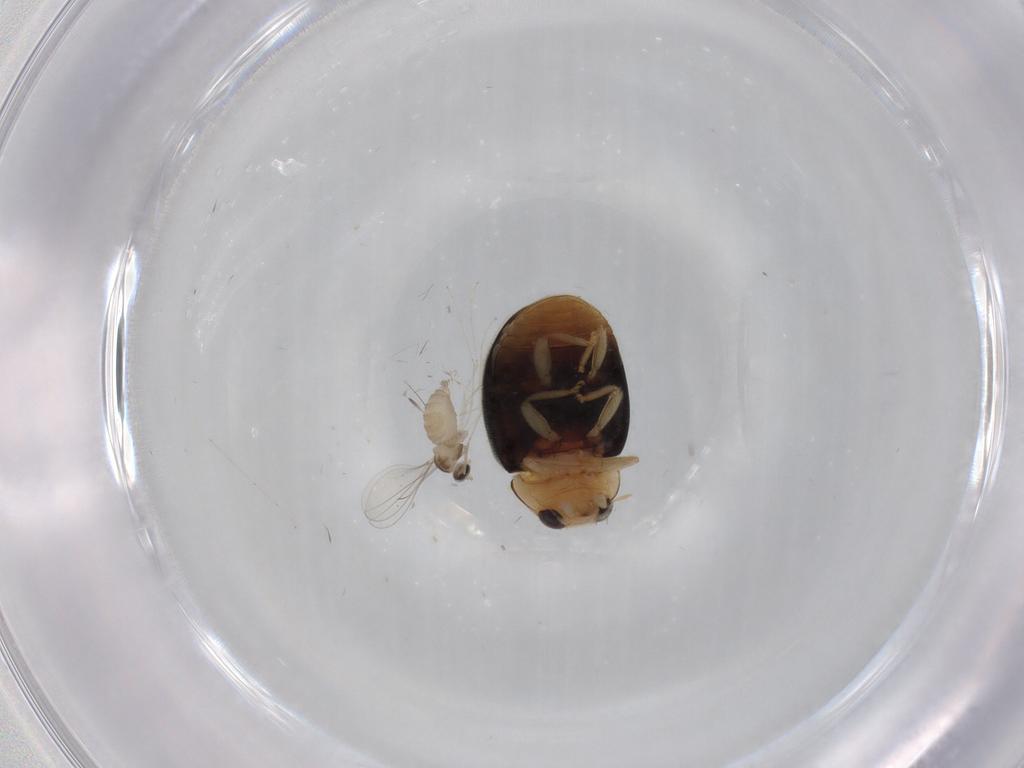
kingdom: Animalia
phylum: Arthropoda
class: Insecta
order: Coleoptera
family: Coccinellidae
